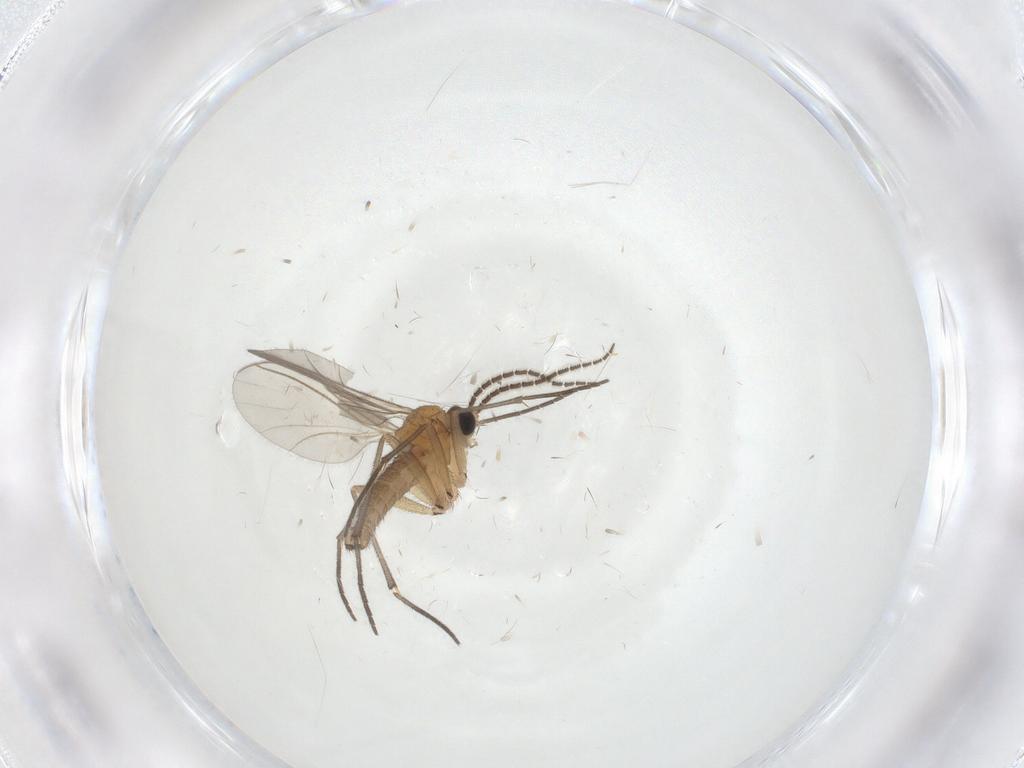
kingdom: Animalia
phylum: Arthropoda
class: Insecta
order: Diptera
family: Sciaridae
